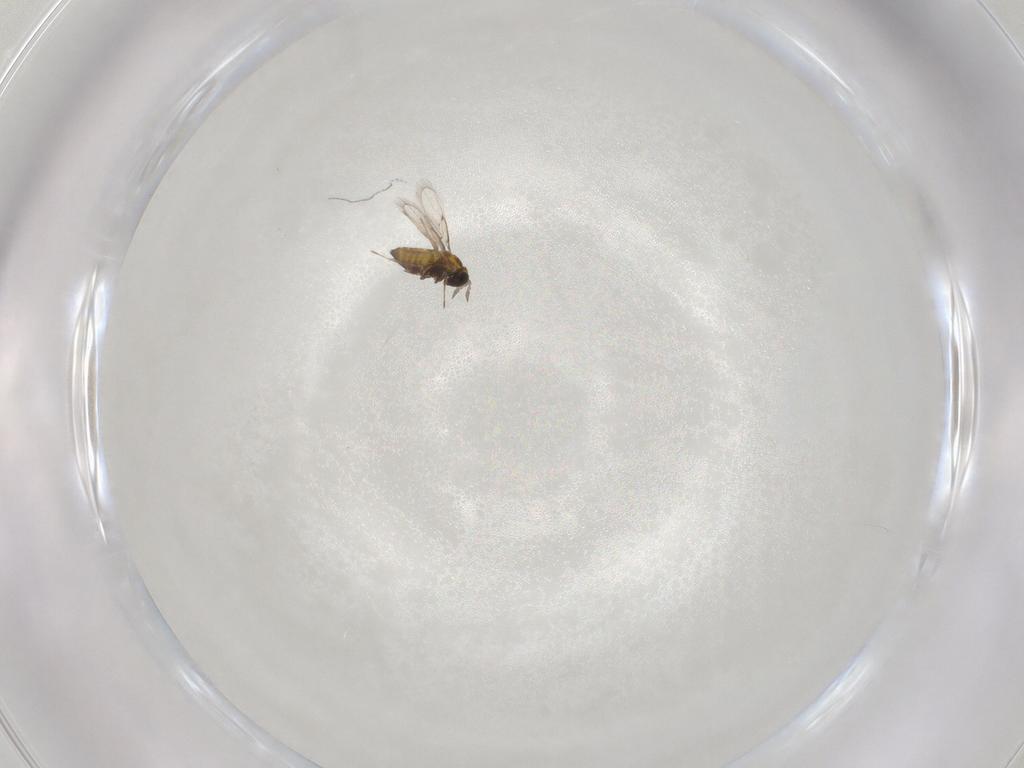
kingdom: Animalia
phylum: Arthropoda
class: Insecta
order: Hymenoptera
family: Trichogrammatidae
